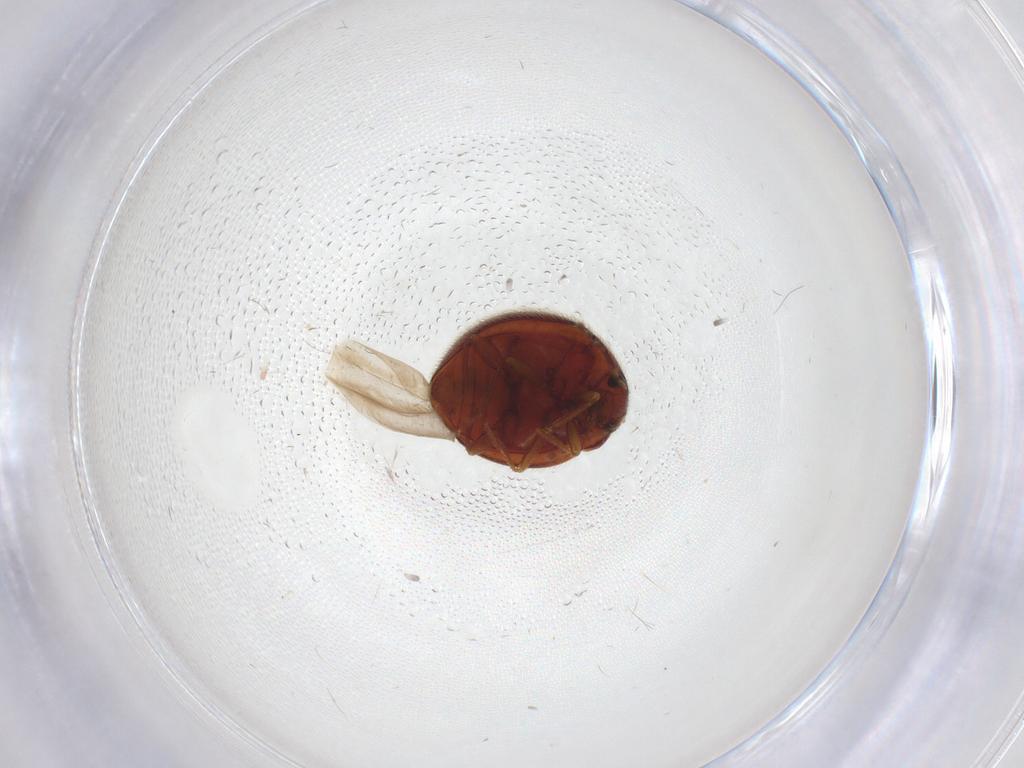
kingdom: Animalia
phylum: Arthropoda
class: Insecta
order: Coleoptera
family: Anamorphidae
